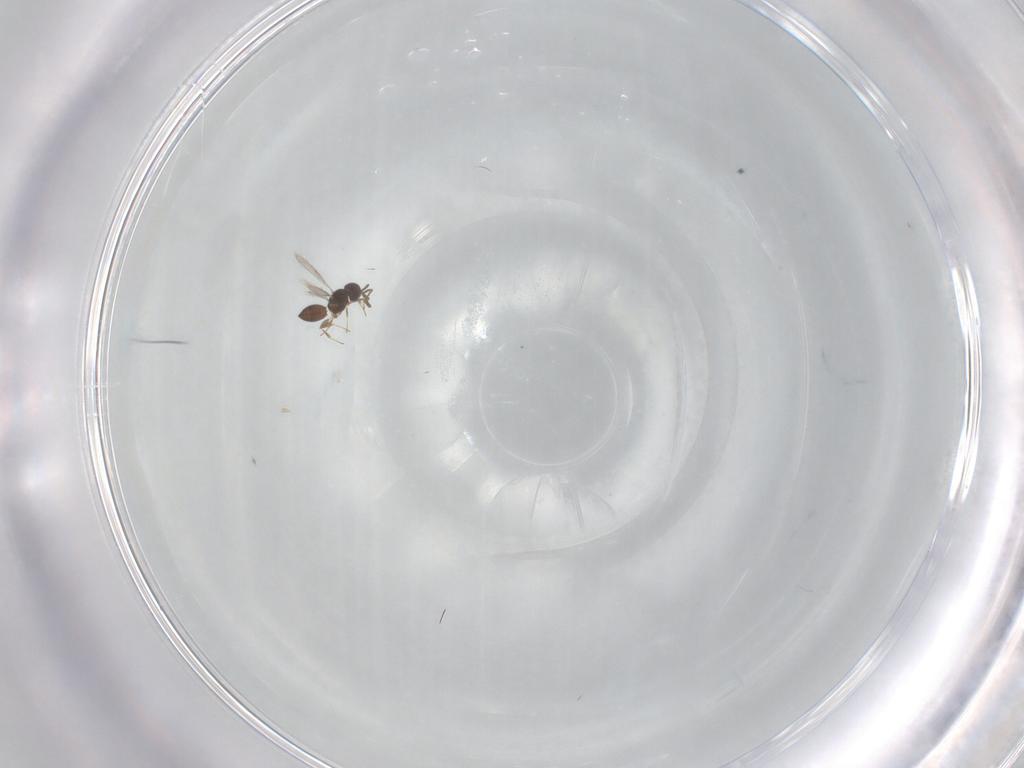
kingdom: Animalia
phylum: Arthropoda
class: Insecta
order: Hymenoptera
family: Ichneumonidae
